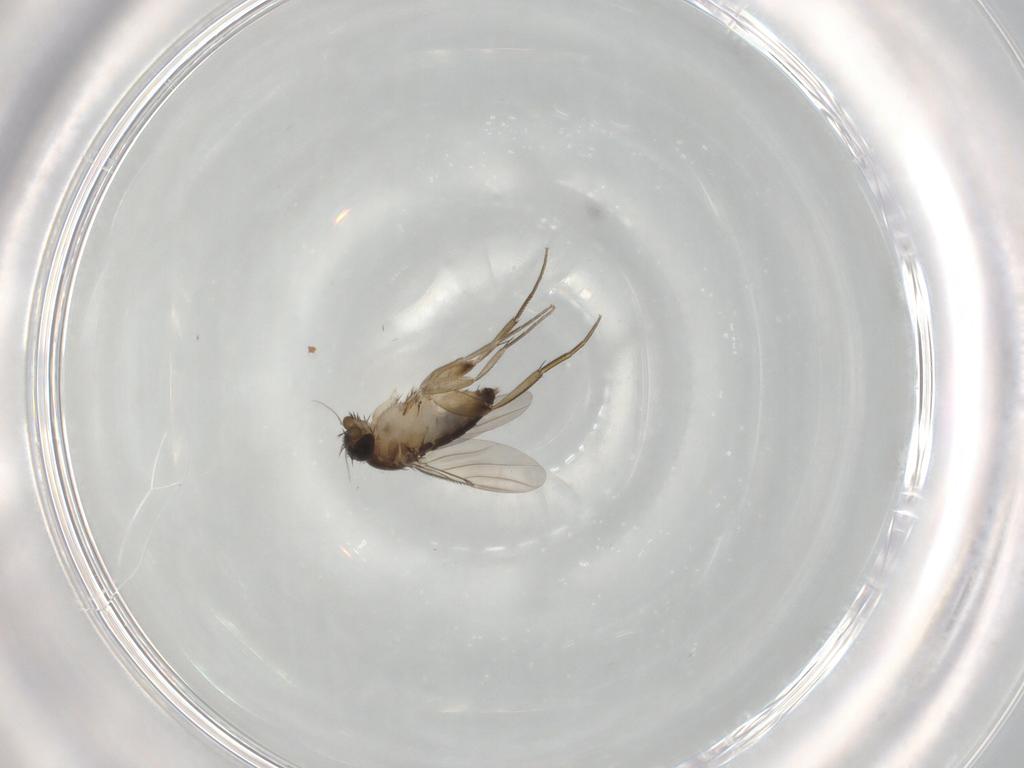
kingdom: Animalia
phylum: Arthropoda
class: Insecta
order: Diptera
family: Phoridae
